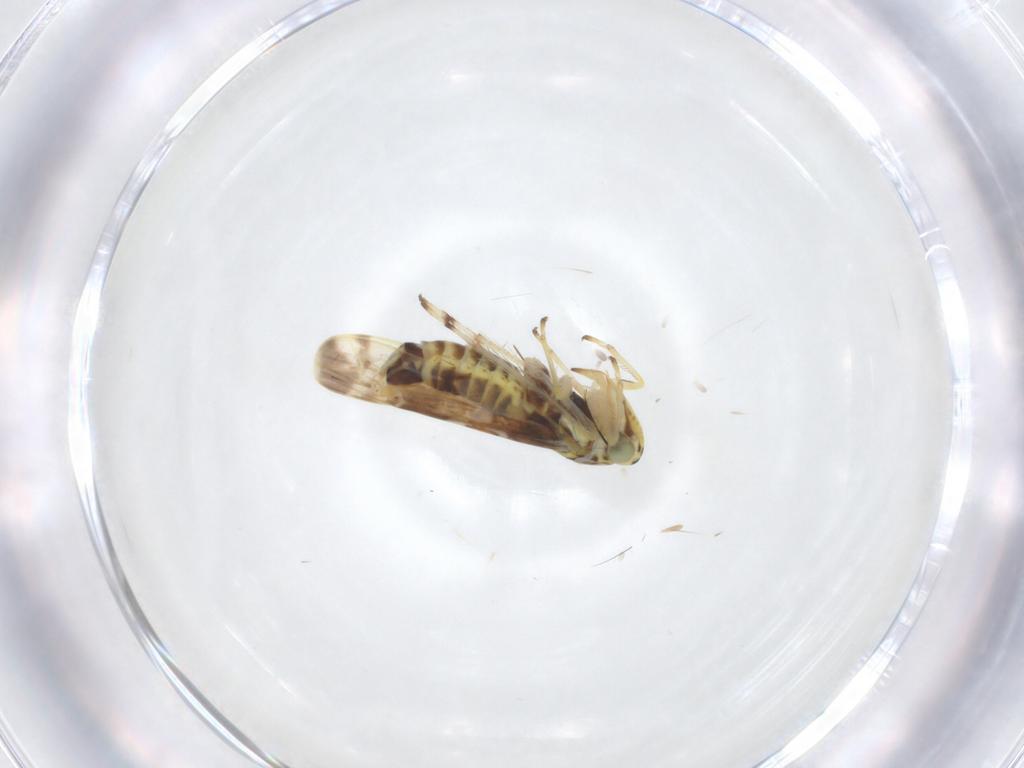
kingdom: Animalia
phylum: Arthropoda
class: Insecta
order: Hemiptera
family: Cicadellidae
